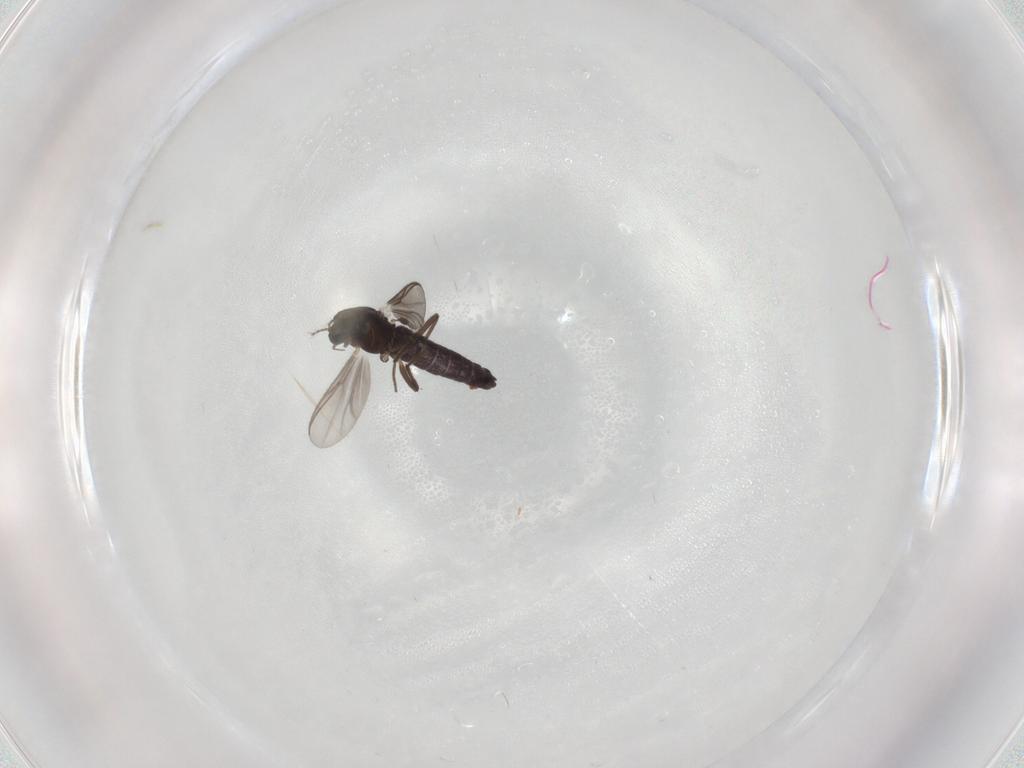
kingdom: Animalia
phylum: Arthropoda
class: Insecta
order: Diptera
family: Chironomidae
